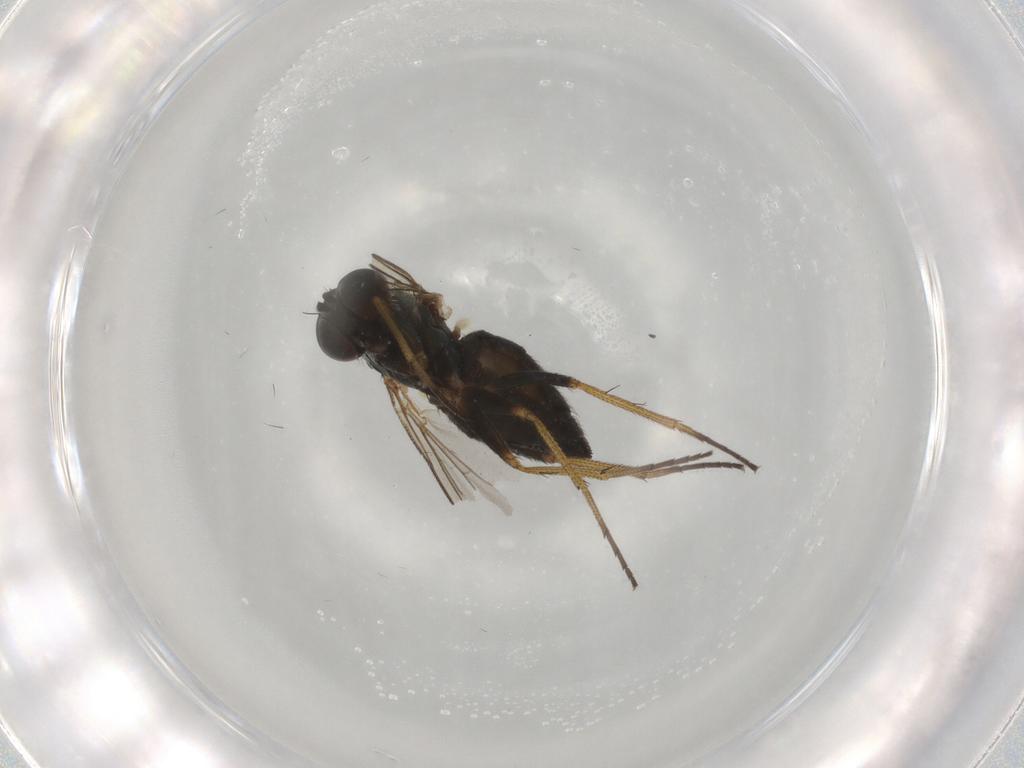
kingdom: Animalia
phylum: Arthropoda
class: Insecta
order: Diptera
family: Dolichopodidae
